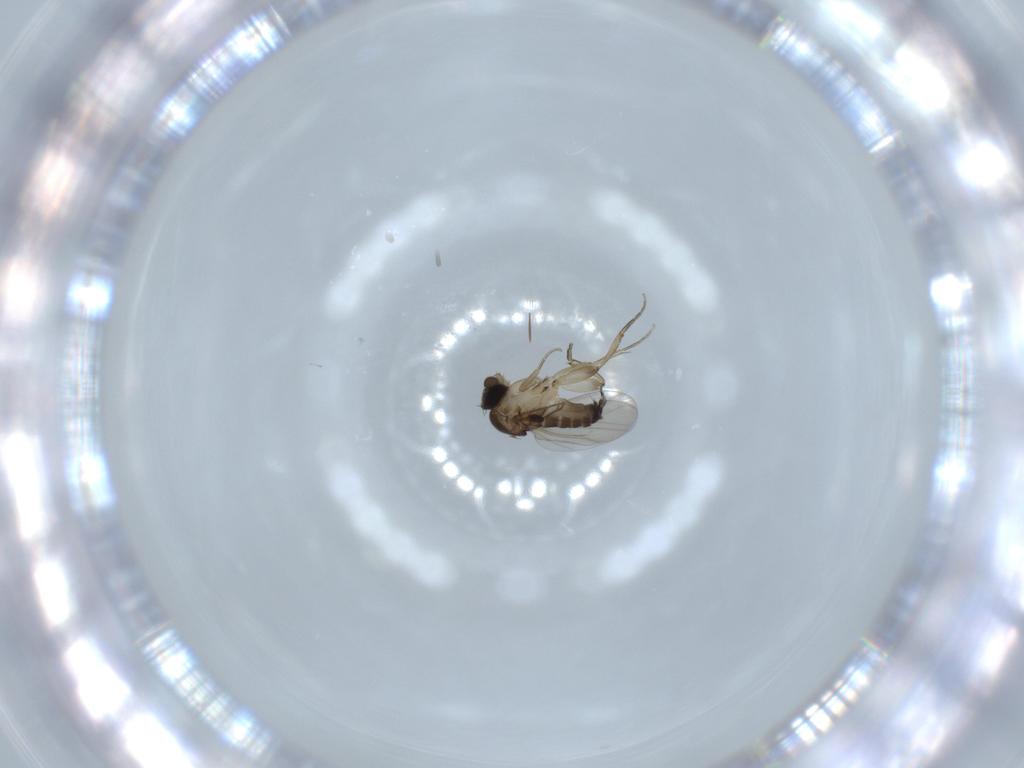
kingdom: Animalia
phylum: Arthropoda
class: Insecta
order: Diptera
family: Phoridae
